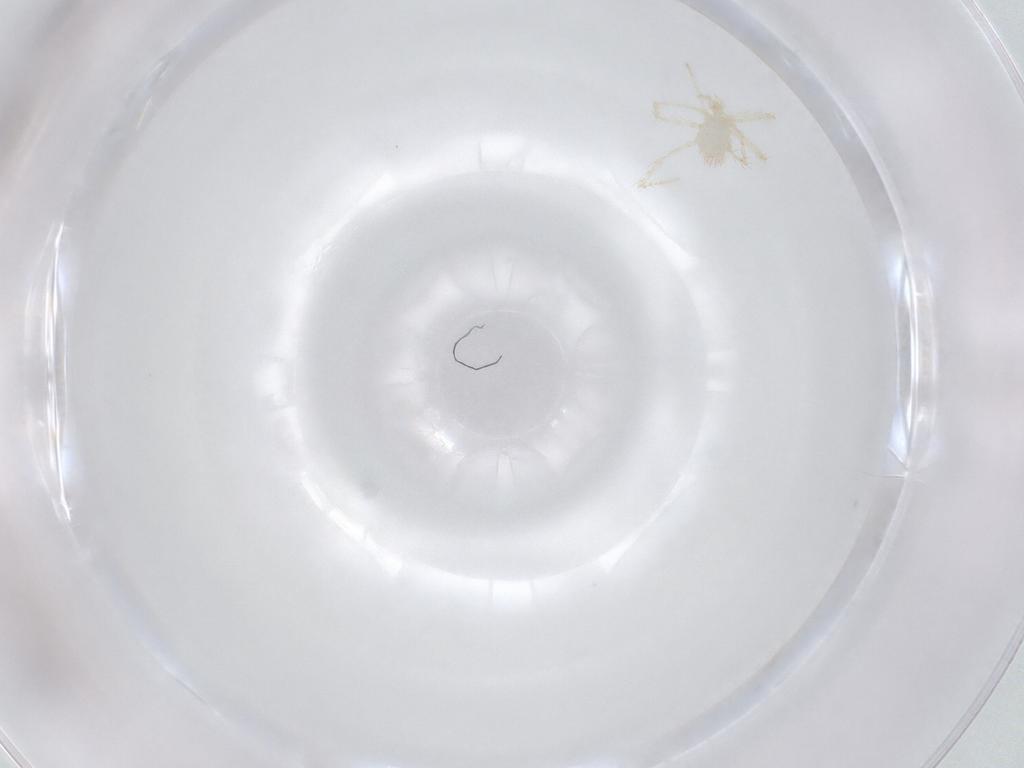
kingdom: Animalia
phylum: Arthropoda
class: Arachnida
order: Trombidiformes
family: Erythraeidae
